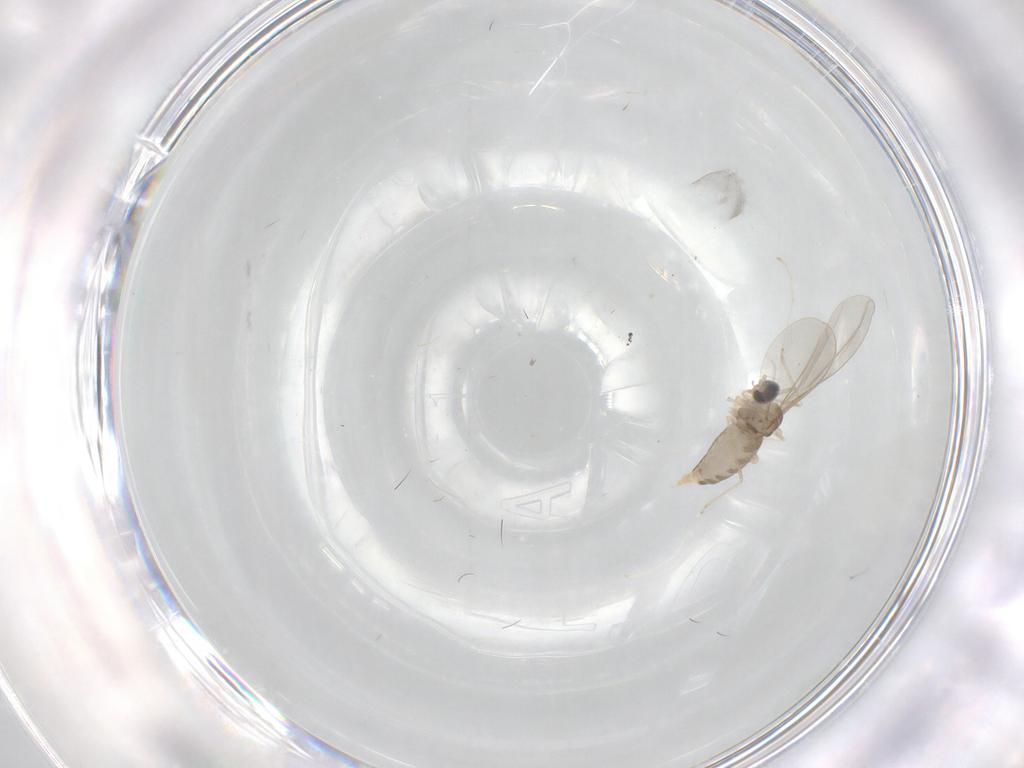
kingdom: Animalia
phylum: Arthropoda
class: Insecta
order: Diptera
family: Cecidomyiidae
